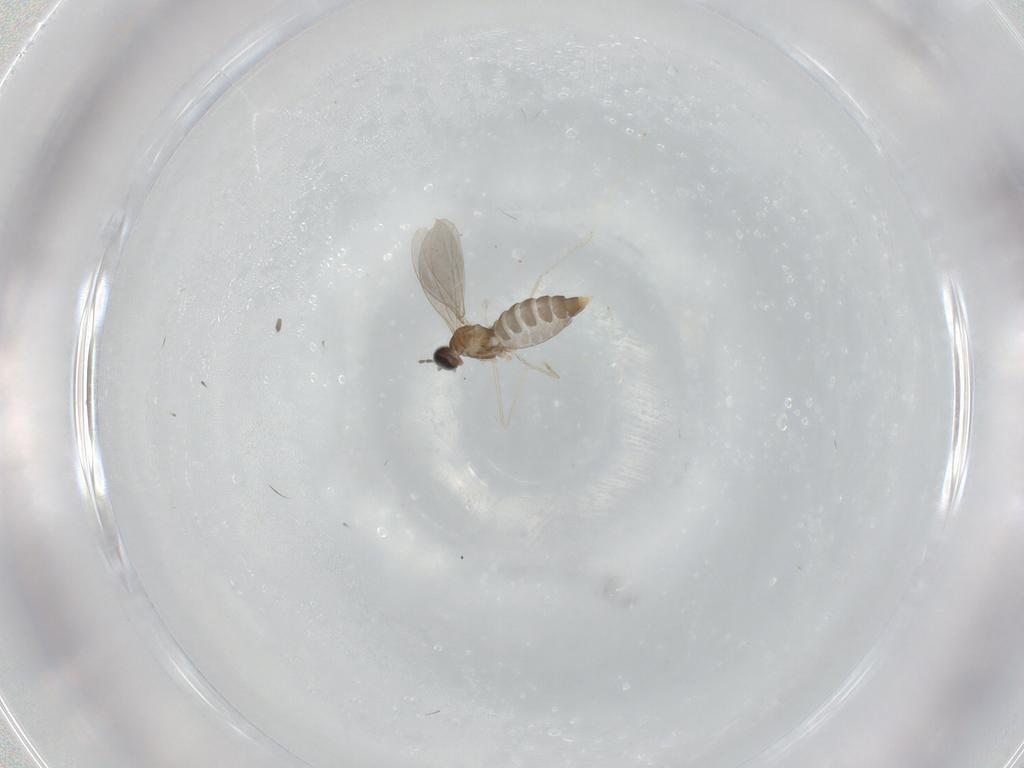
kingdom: Animalia
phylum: Arthropoda
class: Insecta
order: Diptera
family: Cecidomyiidae
